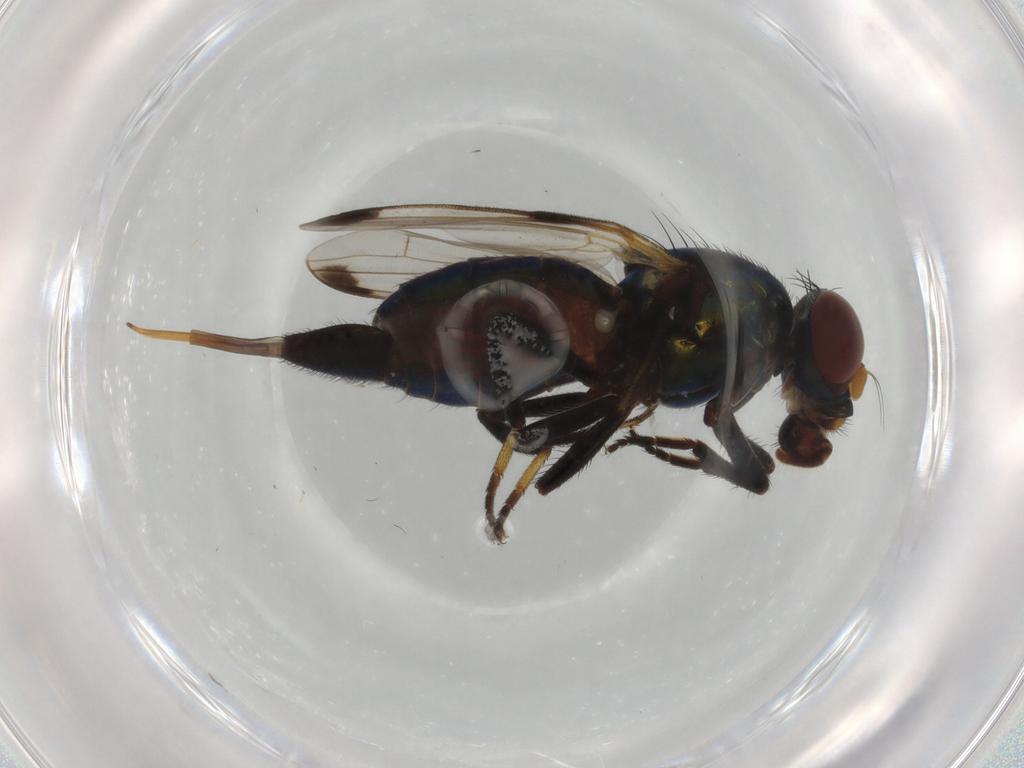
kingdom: Animalia
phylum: Arthropoda
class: Insecta
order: Diptera
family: Ulidiidae
